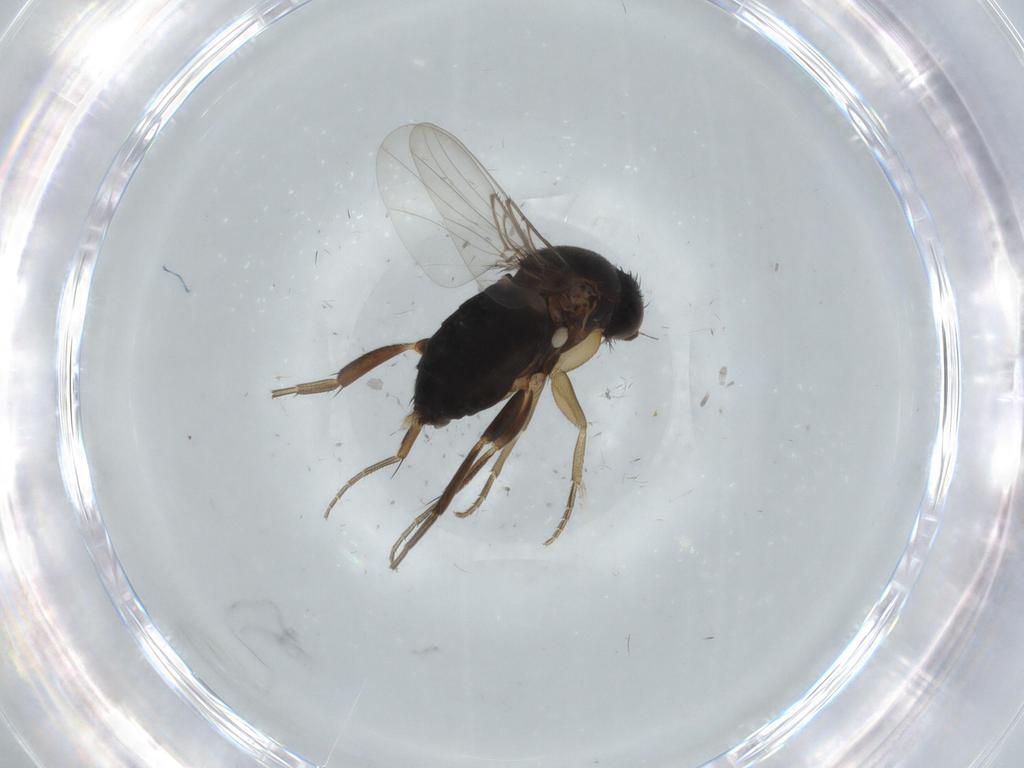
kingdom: Animalia
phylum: Arthropoda
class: Insecta
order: Diptera
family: Phoridae
